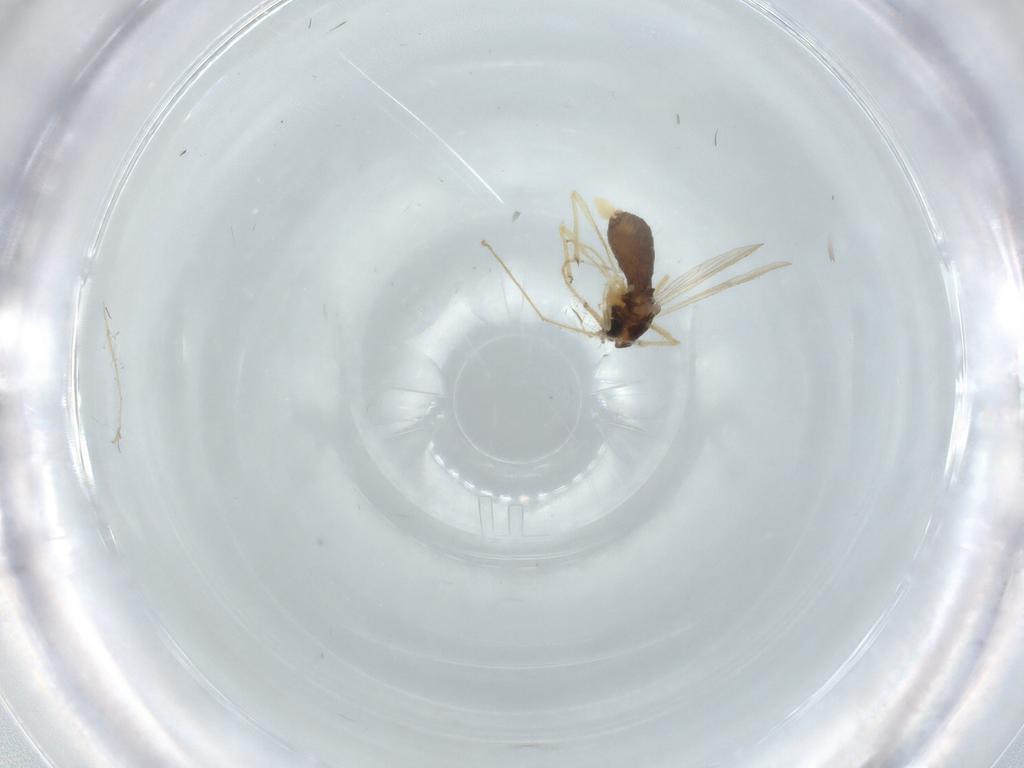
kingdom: Animalia
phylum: Arthropoda
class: Insecta
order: Diptera
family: Chironomidae
